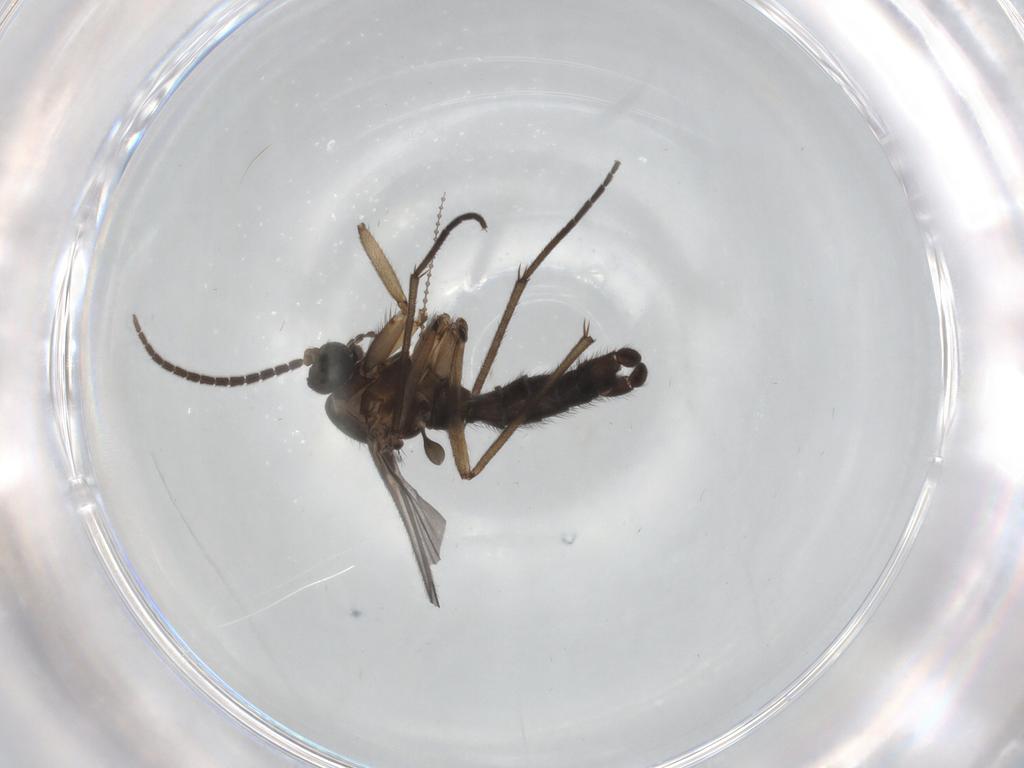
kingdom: Animalia
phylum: Arthropoda
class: Insecta
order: Diptera
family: Sciaridae
